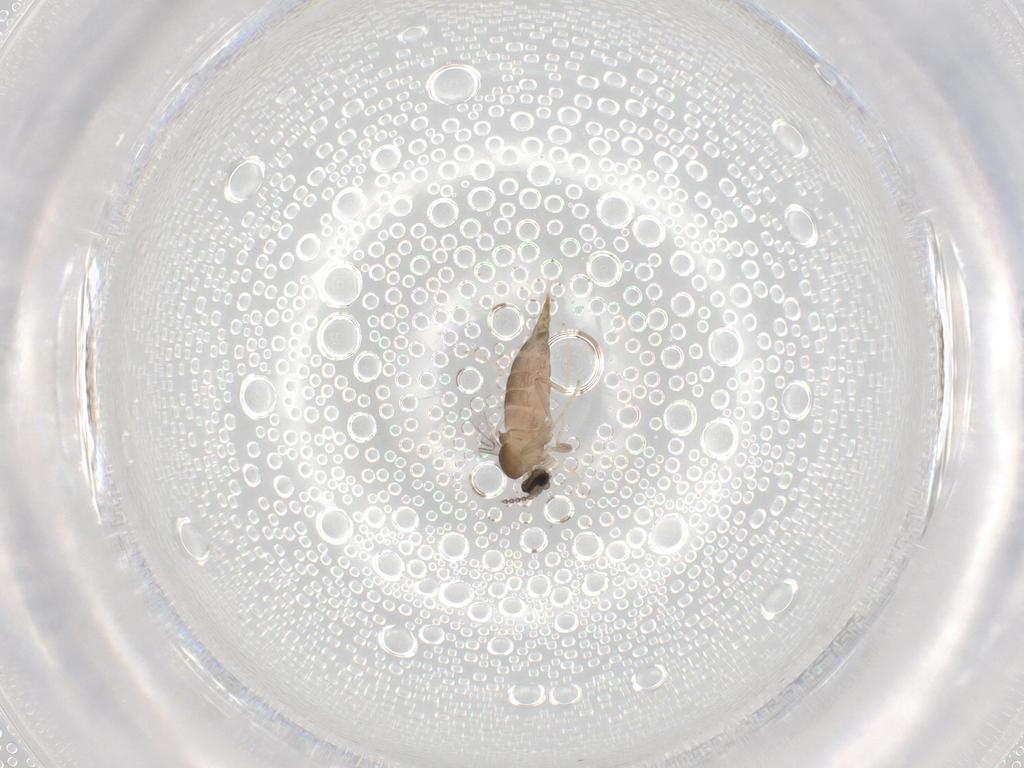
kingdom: Animalia
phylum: Arthropoda
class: Insecta
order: Diptera
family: Cecidomyiidae
